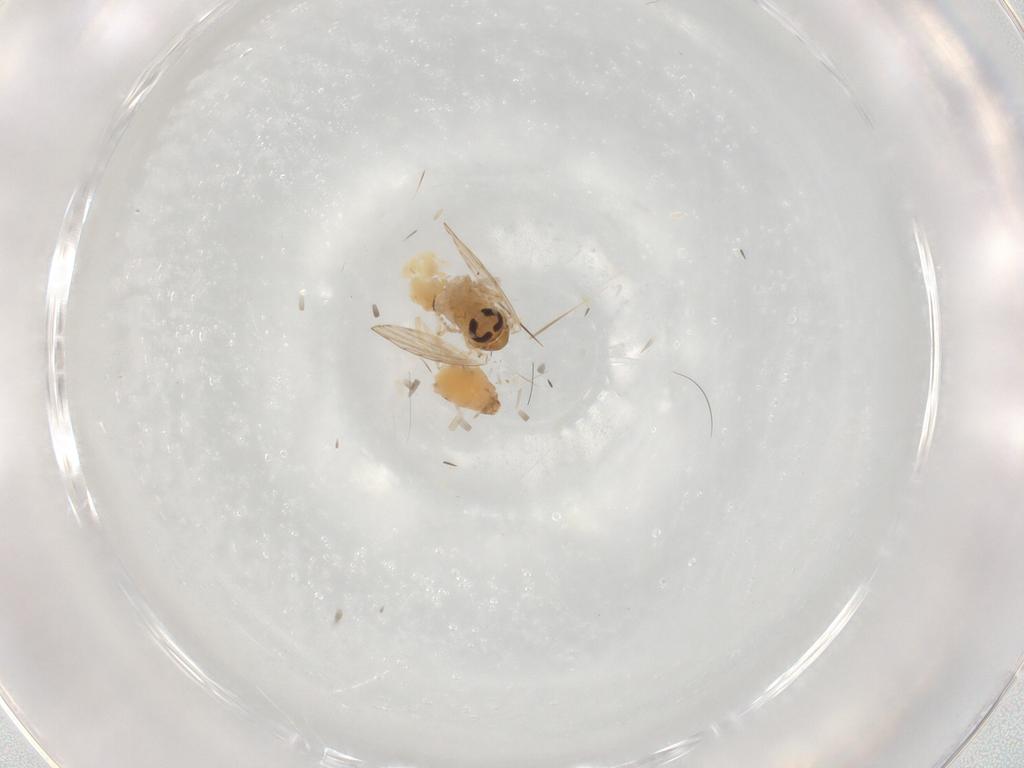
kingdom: Animalia
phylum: Arthropoda
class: Insecta
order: Diptera
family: Psychodidae
